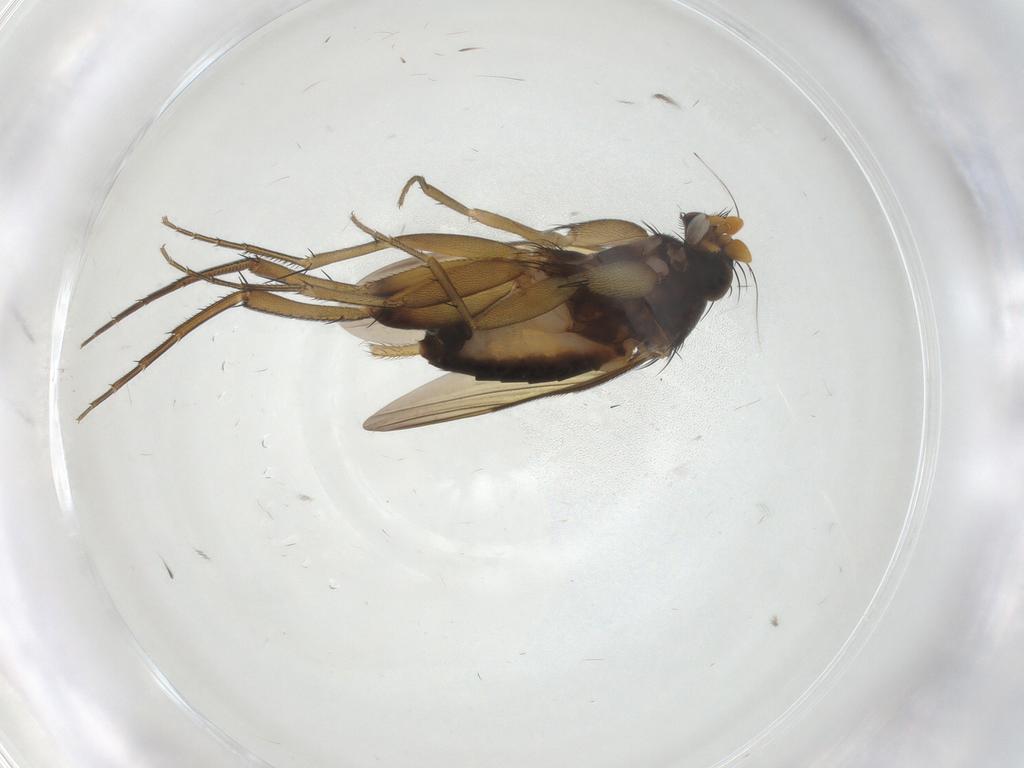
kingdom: Animalia
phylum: Arthropoda
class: Insecta
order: Diptera
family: Phoridae
